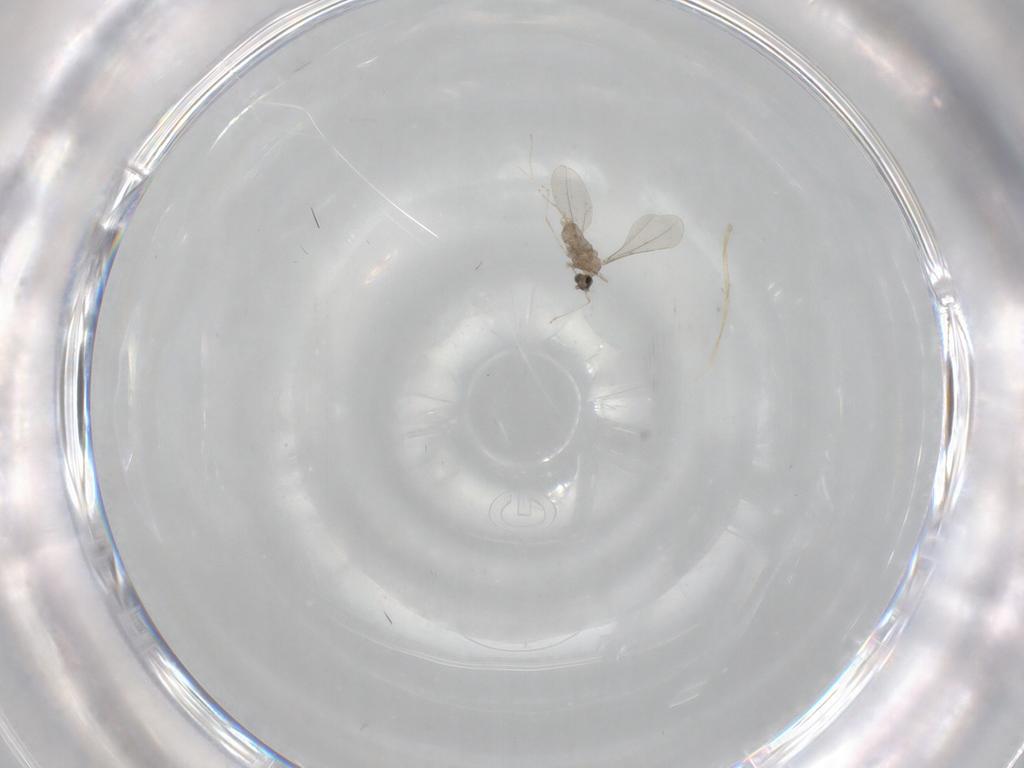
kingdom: Animalia
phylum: Arthropoda
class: Insecta
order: Diptera
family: Cecidomyiidae
